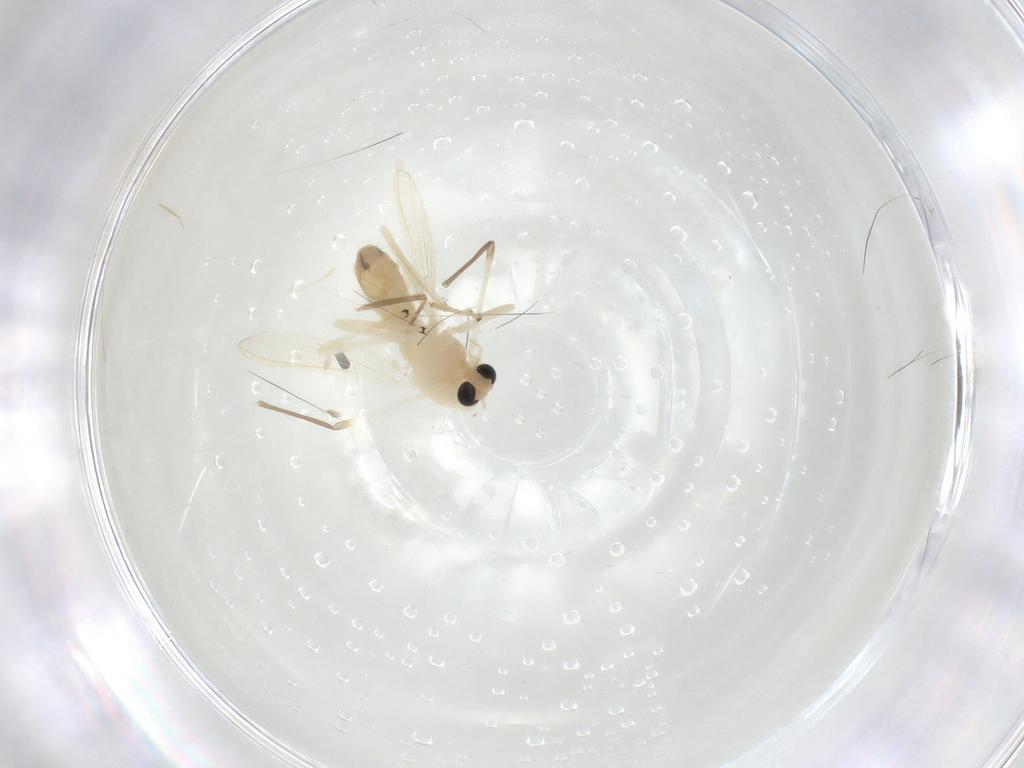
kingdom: Animalia
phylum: Arthropoda
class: Insecta
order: Diptera
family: Chironomidae
